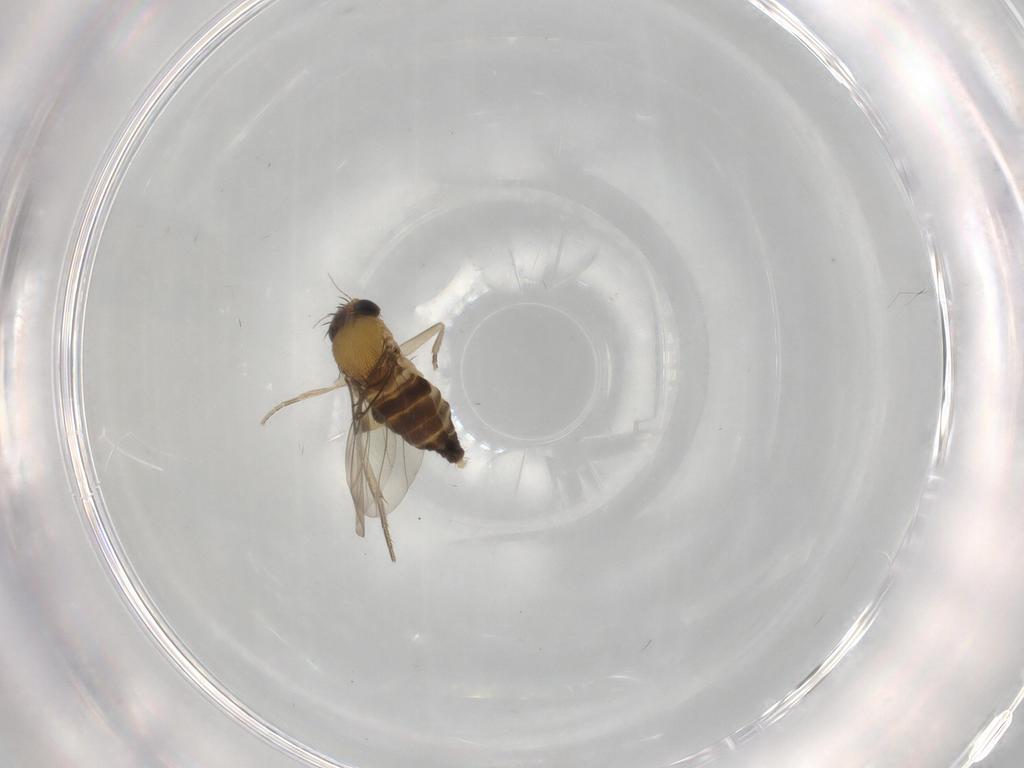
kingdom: Animalia
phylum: Arthropoda
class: Insecta
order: Diptera
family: Phoridae
